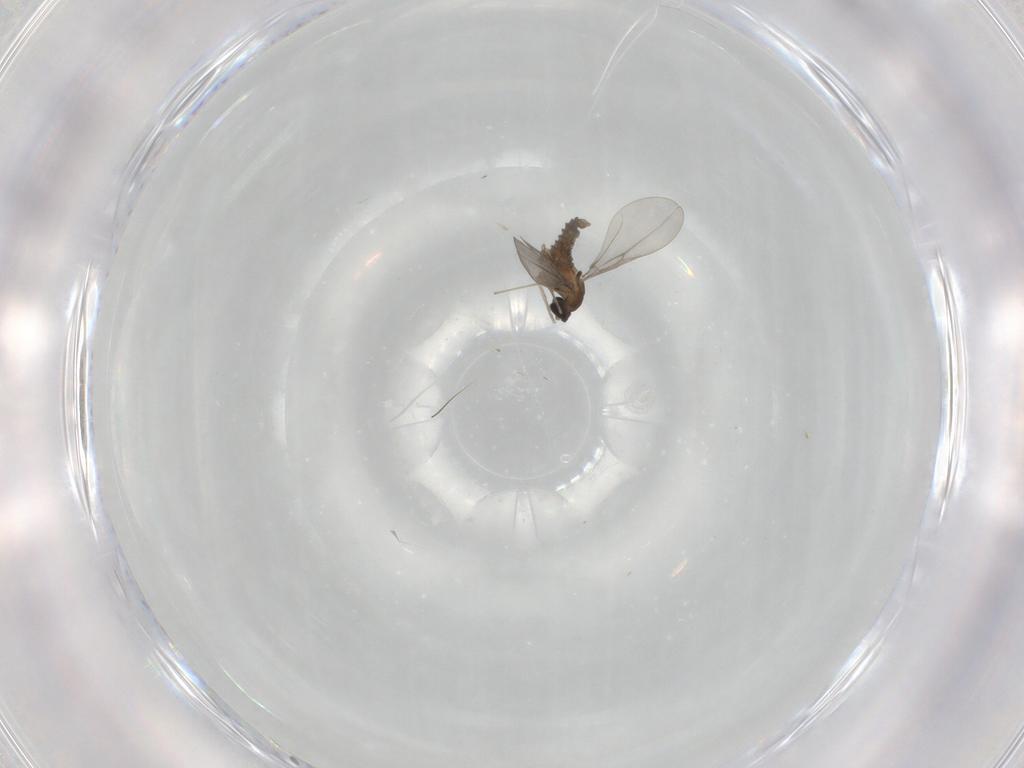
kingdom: Animalia
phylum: Arthropoda
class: Insecta
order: Diptera
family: Cecidomyiidae
